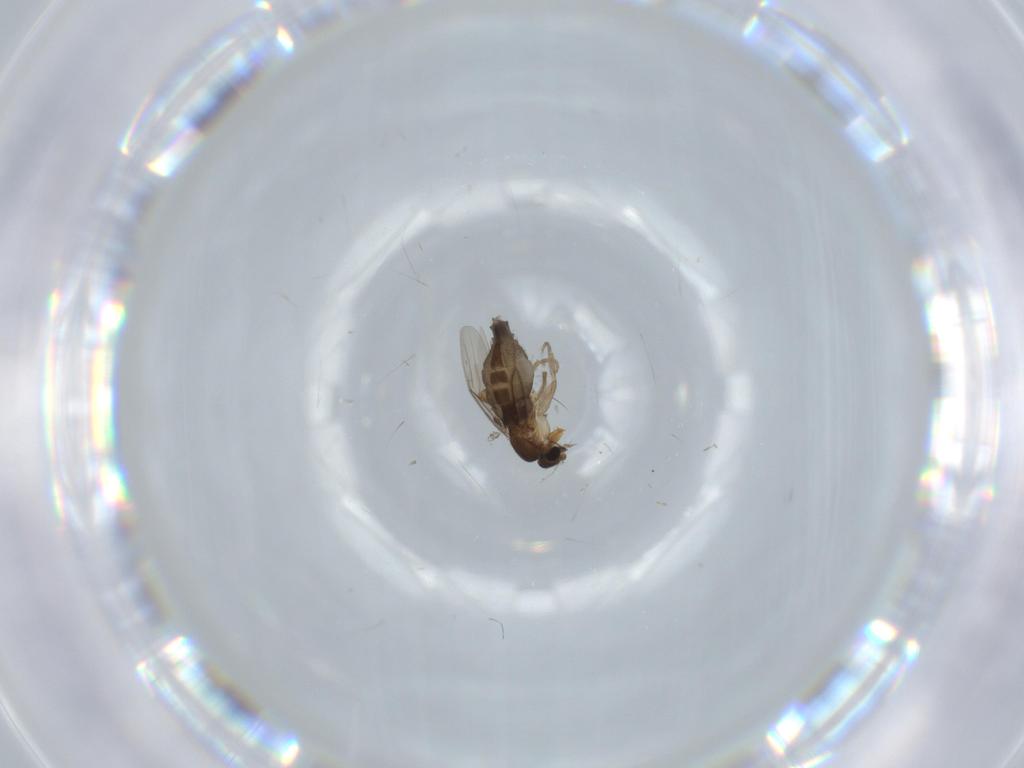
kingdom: Animalia
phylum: Arthropoda
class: Insecta
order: Diptera
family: Phoridae
